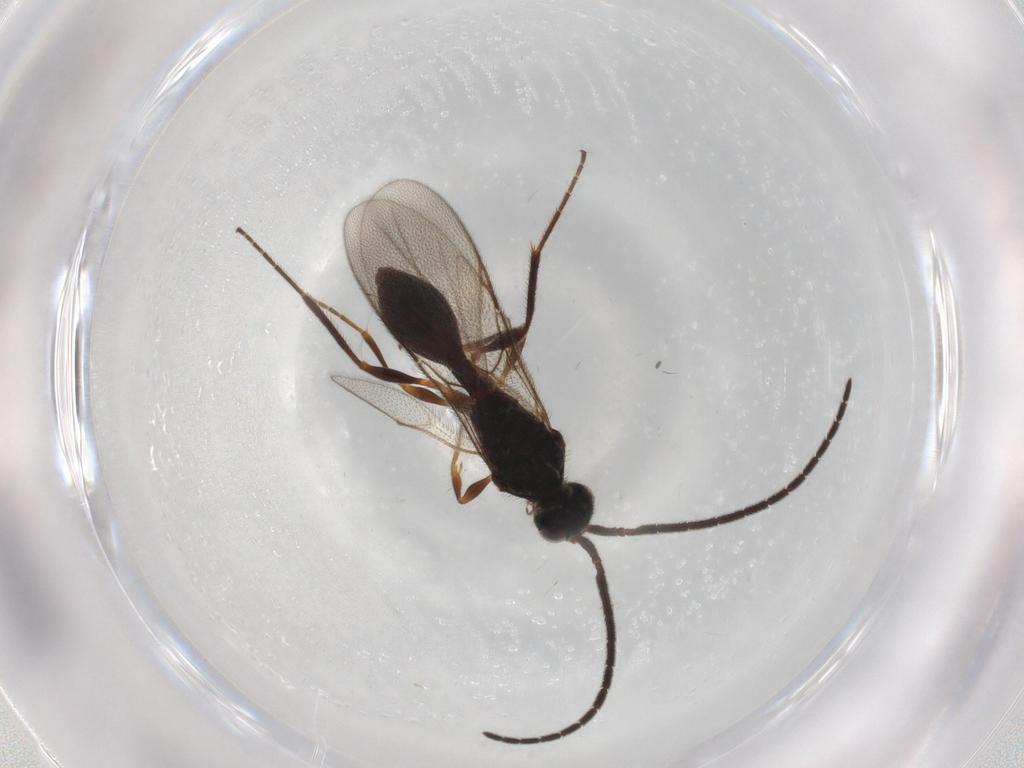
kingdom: Animalia
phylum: Arthropoda
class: Insecta
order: Hymenoptera
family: Diapriidae
